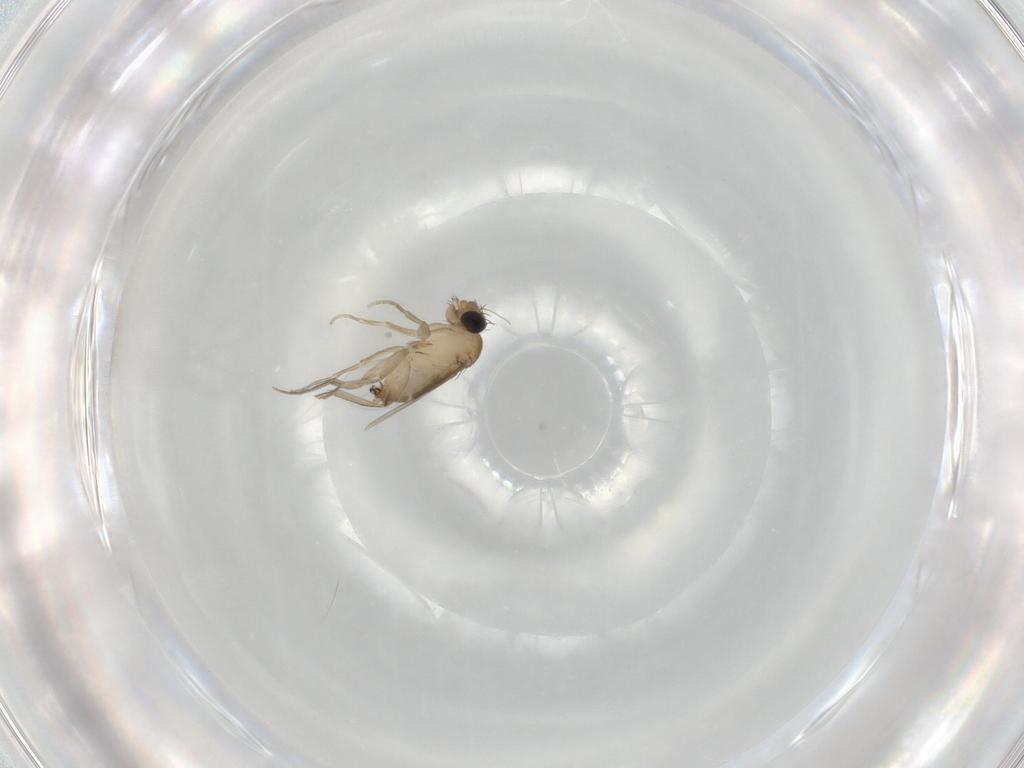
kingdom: Animalia
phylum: Arthropoda
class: Insecta
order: Diptera
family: Phoridae
